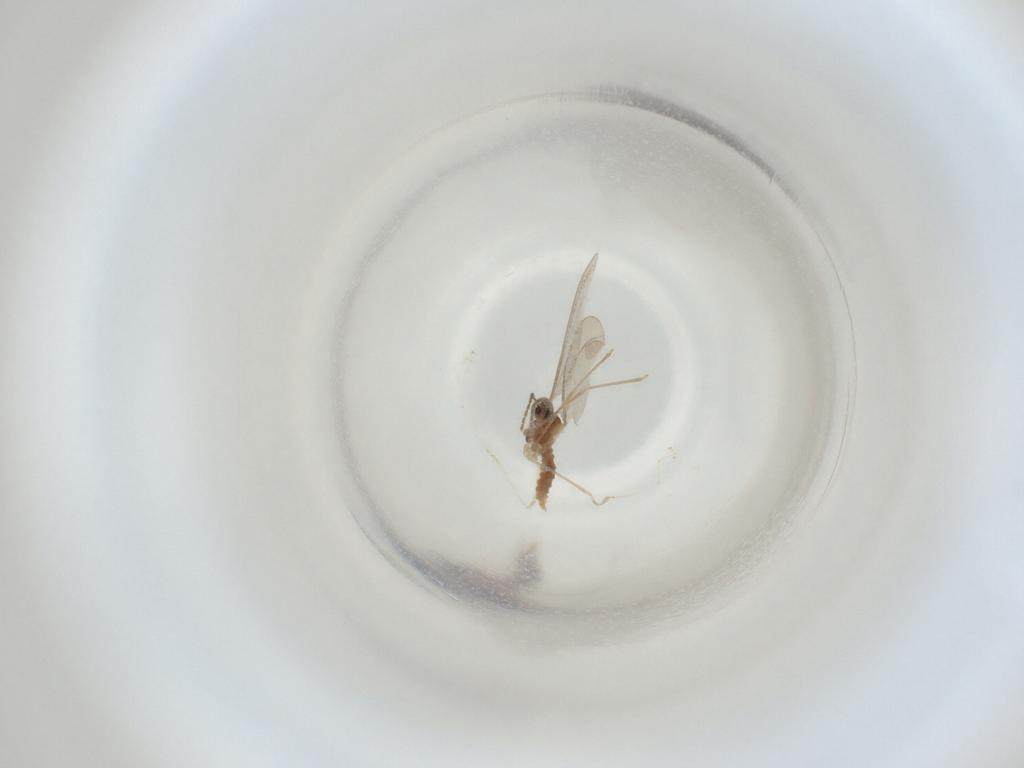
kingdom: Animalia
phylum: Arthropoda
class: Insecta
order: Diptera
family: Cecidomyiidae
